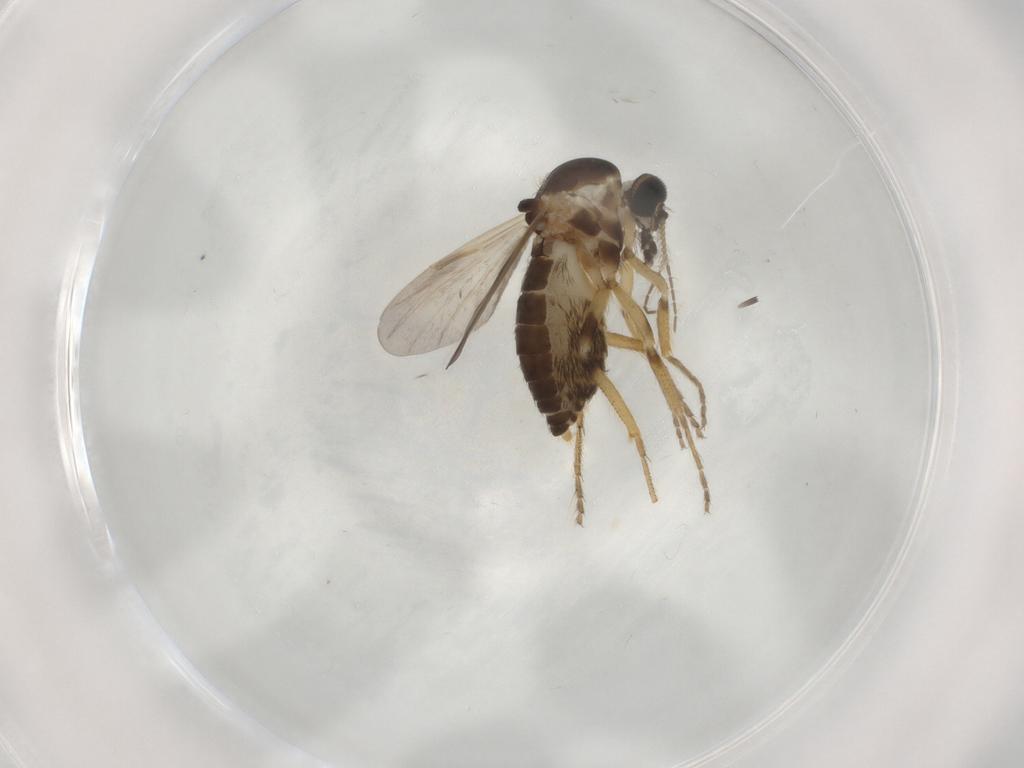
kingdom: Animalia
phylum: Arthropoda
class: Insecta
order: Diptera
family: Ceratopogonidae
